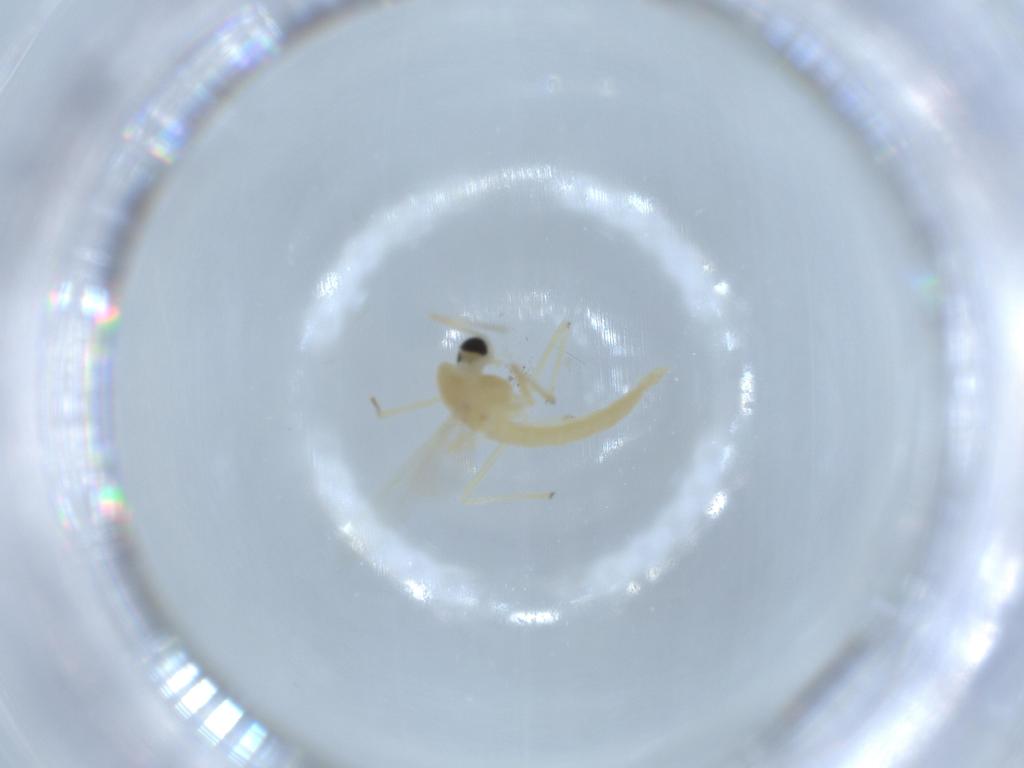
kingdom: Animalia
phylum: Arthropoda
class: Insecta
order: Diptera
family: Chironomidae
